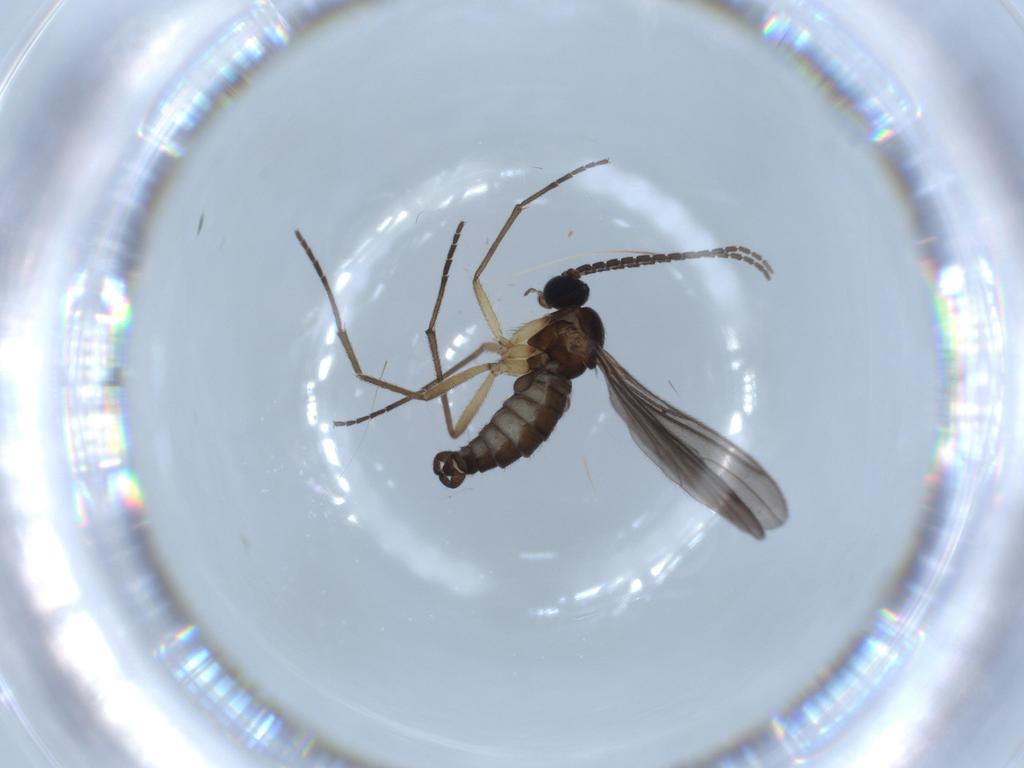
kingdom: Animalia
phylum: Arthropoda
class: Insecta
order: Diptera
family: Sciaridae
